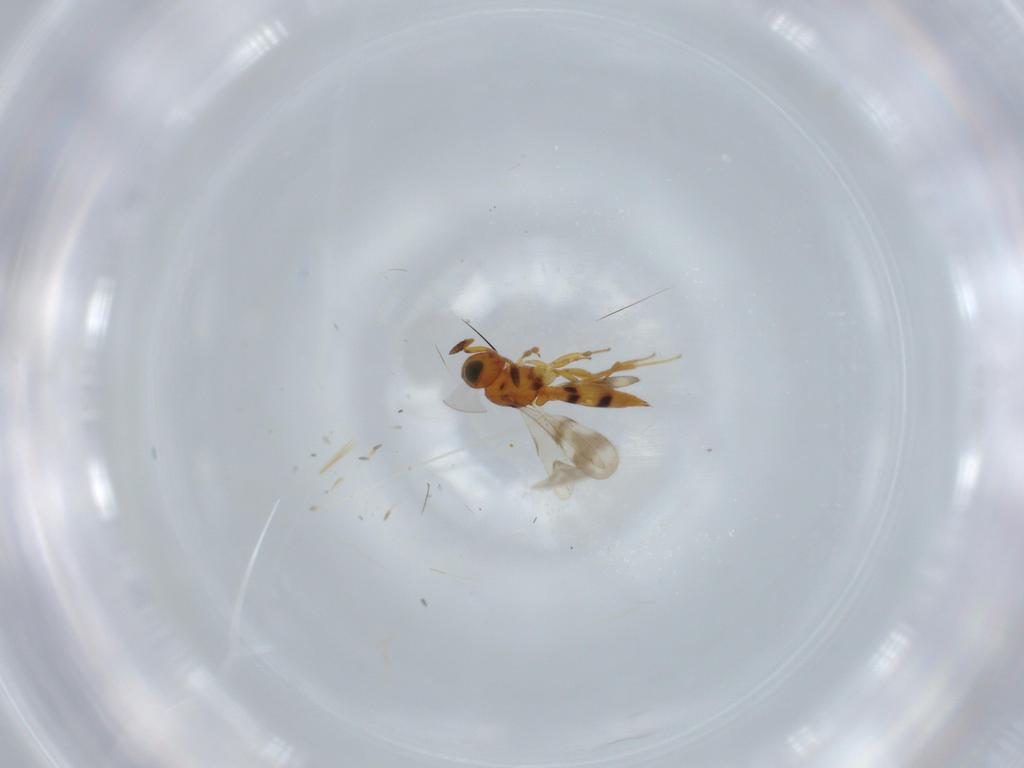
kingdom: Animalia
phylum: Arthropoda
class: Insecta
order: Hymenoptera
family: Scelionidae
